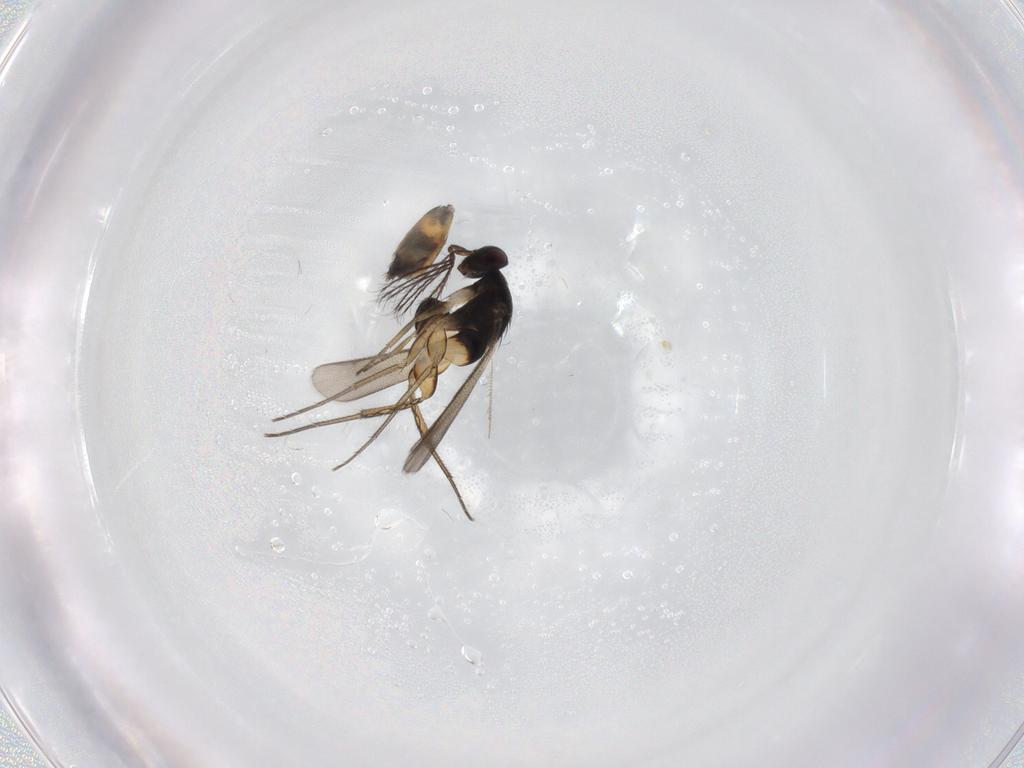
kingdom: Animalia
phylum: Arthropoda
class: Insecta
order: Hymenoptera
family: Eulophidae
